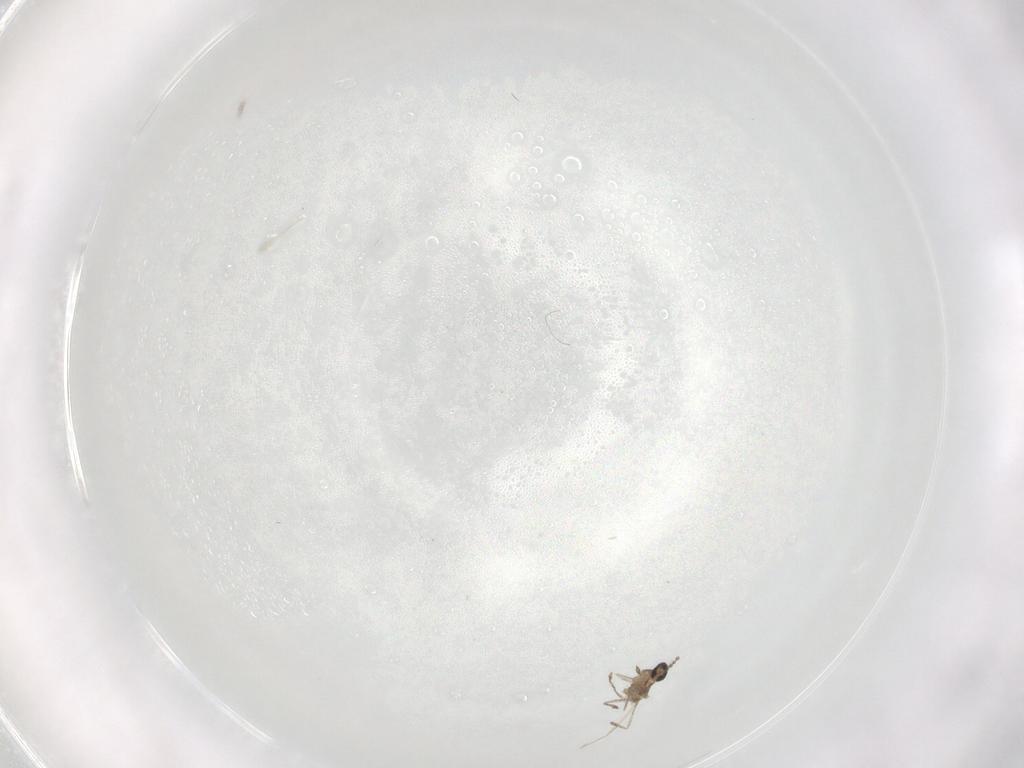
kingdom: Animalia
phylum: Arthropoda
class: Insecta
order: Diptera
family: Cecidomyiidae
